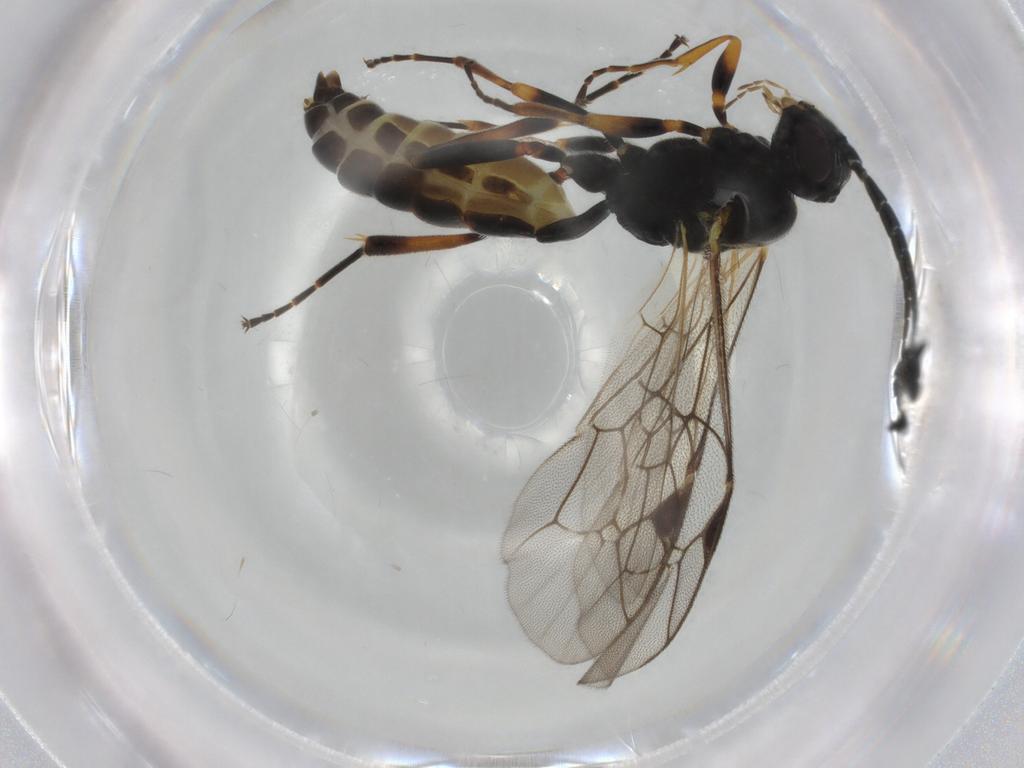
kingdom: Animalia
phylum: Arthropoda
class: Insecta
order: Hymenoptera
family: Ichneumonidae
